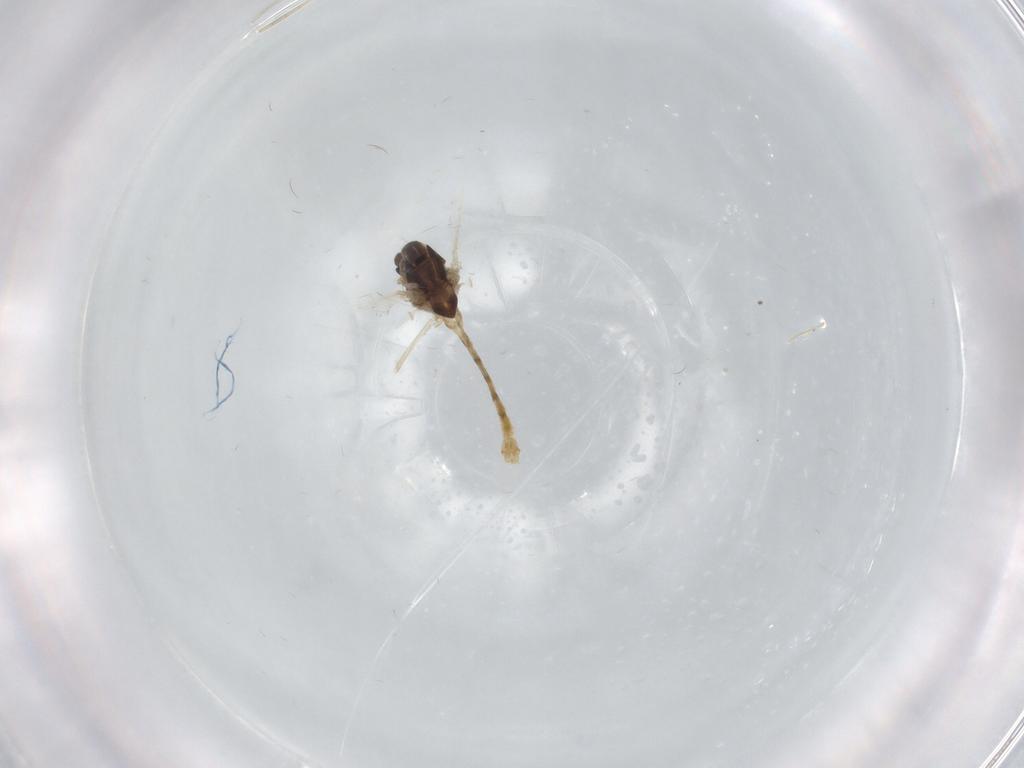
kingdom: Animalia
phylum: Arthropoda
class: Insecta
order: Diptera
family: Chironomidae
